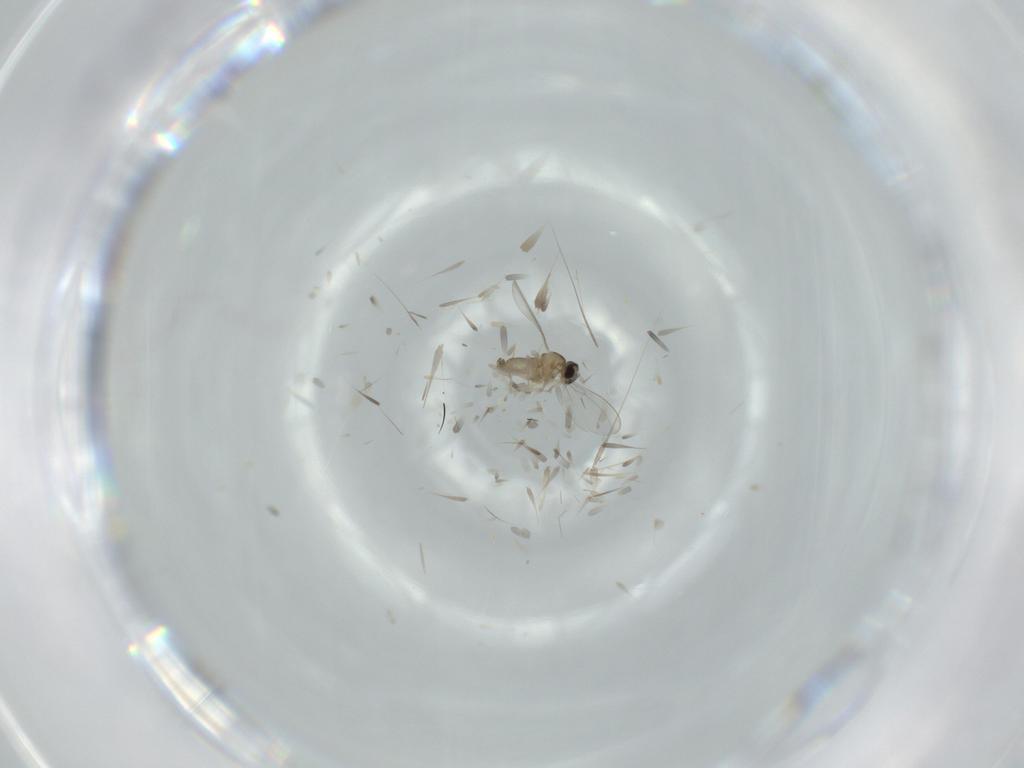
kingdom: Animalia
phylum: Arthropoda
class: Insecta
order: Diptera
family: Cecidomyiidae
